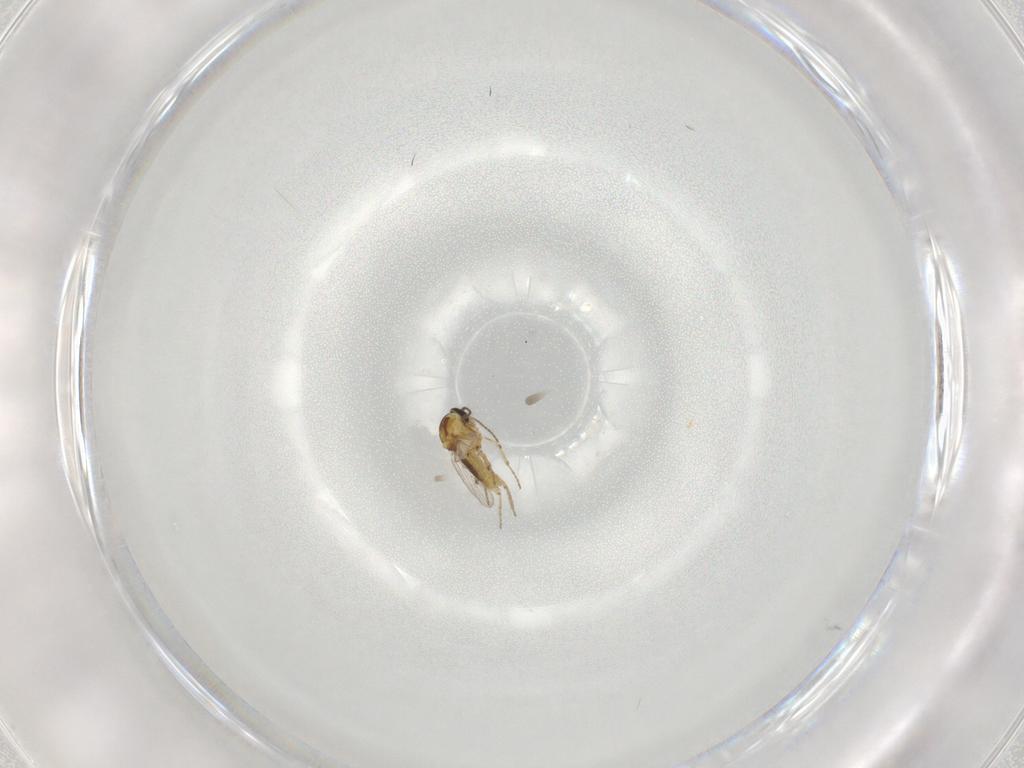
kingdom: Animalia
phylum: Arthropoda
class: Insecta
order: Diptera
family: Ceratopogonidae
